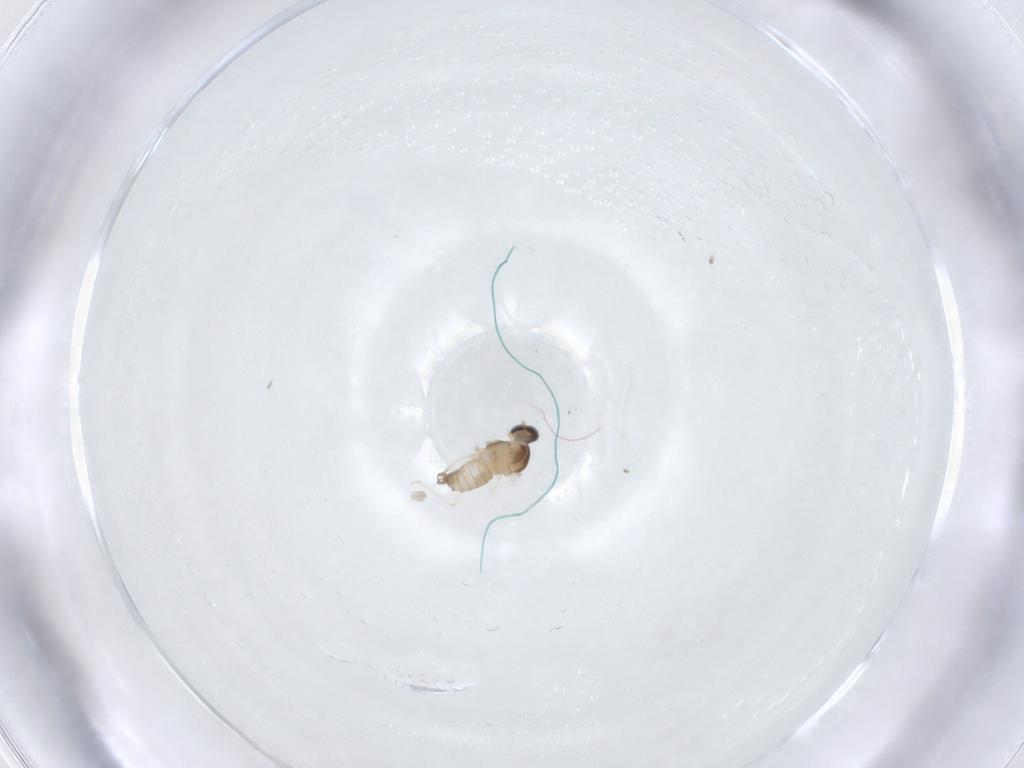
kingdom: Animalia
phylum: Arthropoda
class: Insecta
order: Diptera
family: Cecidomyiidae
